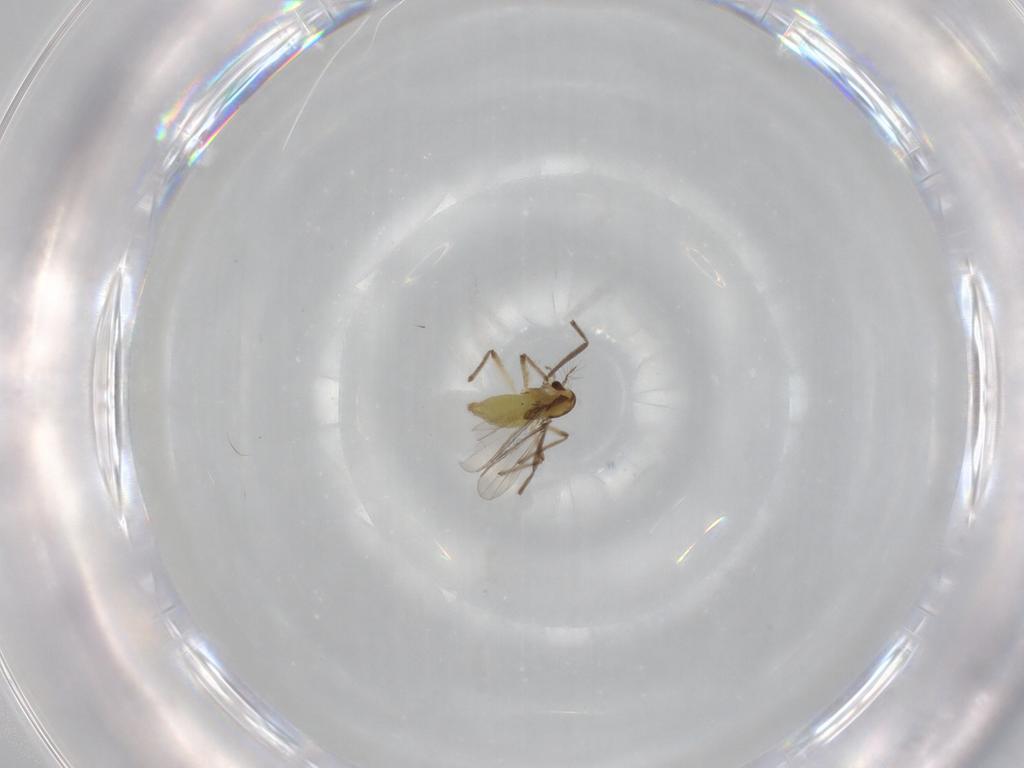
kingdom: Animalia
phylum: Arthropoda
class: Insecta
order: Diptera
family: Chironomidae
